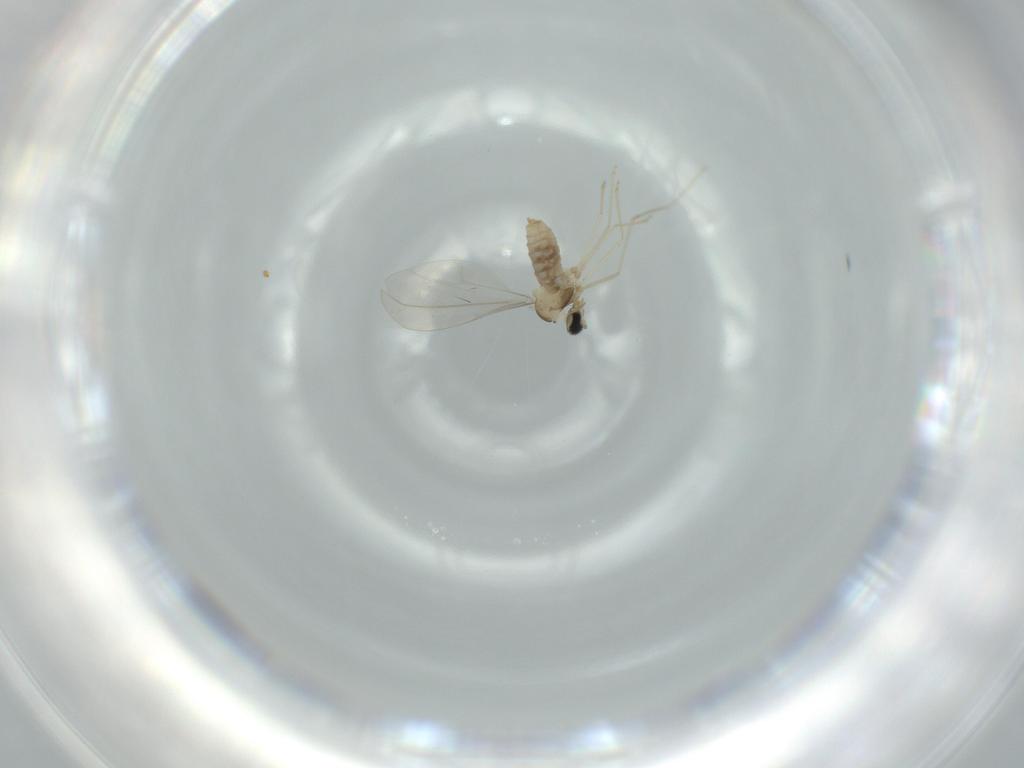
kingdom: Animalia
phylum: Arthropoda
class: Insecta
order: Diptera
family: Cecidomyiidae
